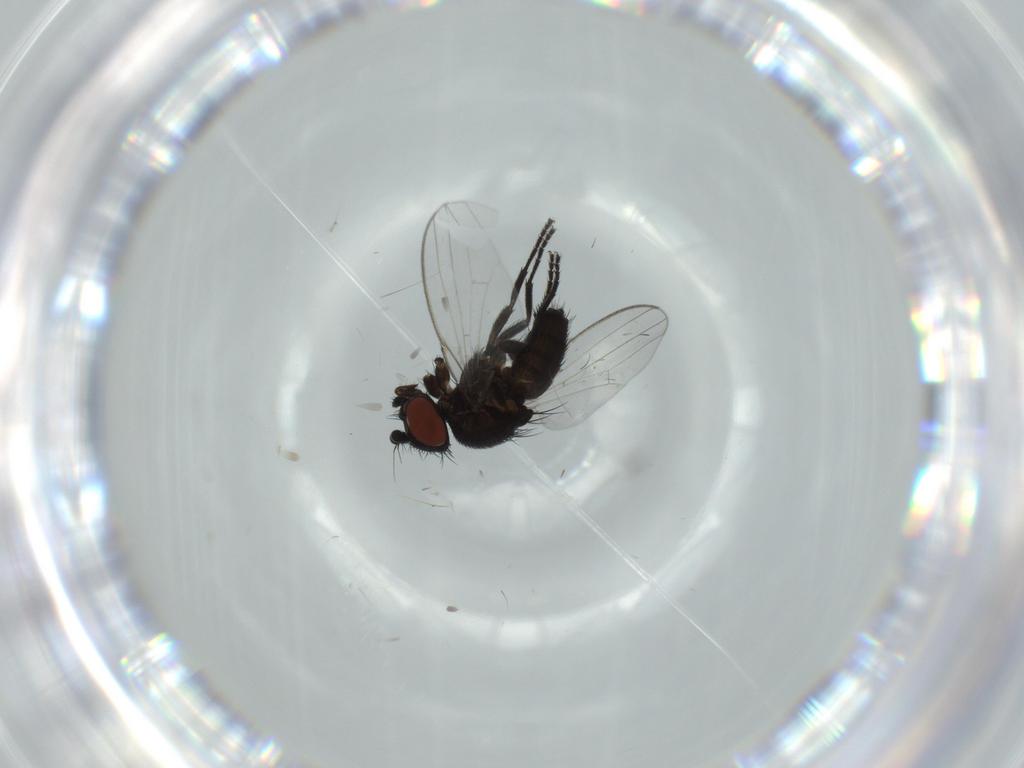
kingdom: Animalia
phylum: Arthropoda
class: Insecta
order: Diptera
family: Milichiidae
